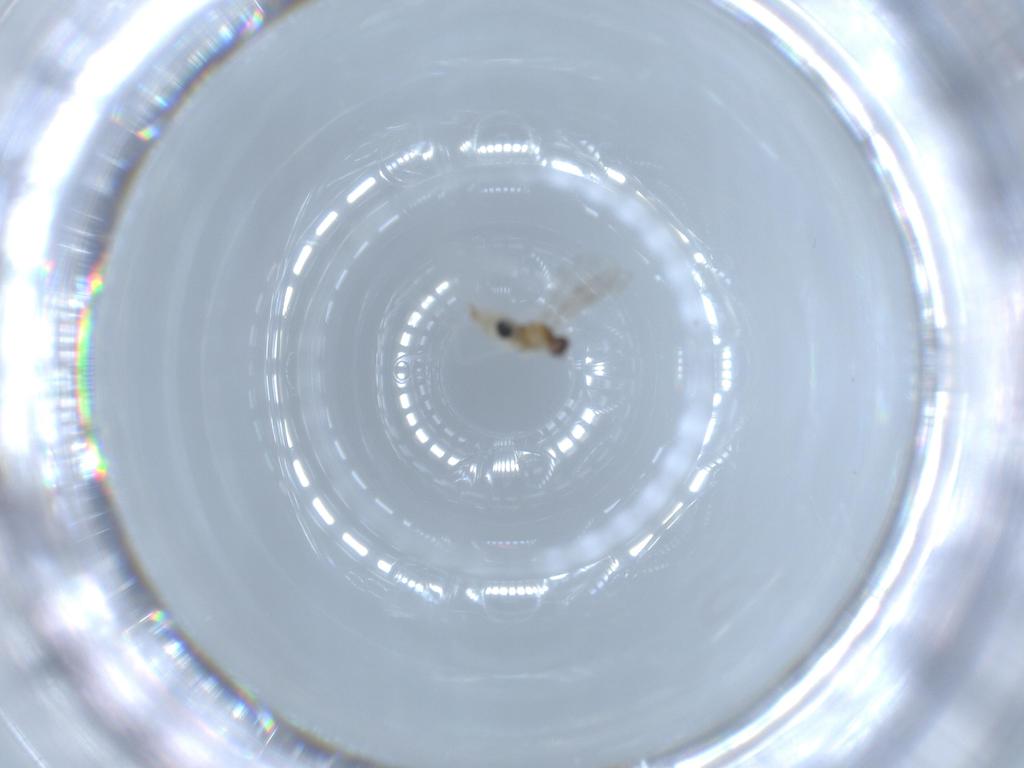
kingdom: Animalia
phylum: Arthropoda
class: Insecta
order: Diptera
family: Cecidomyiidae
